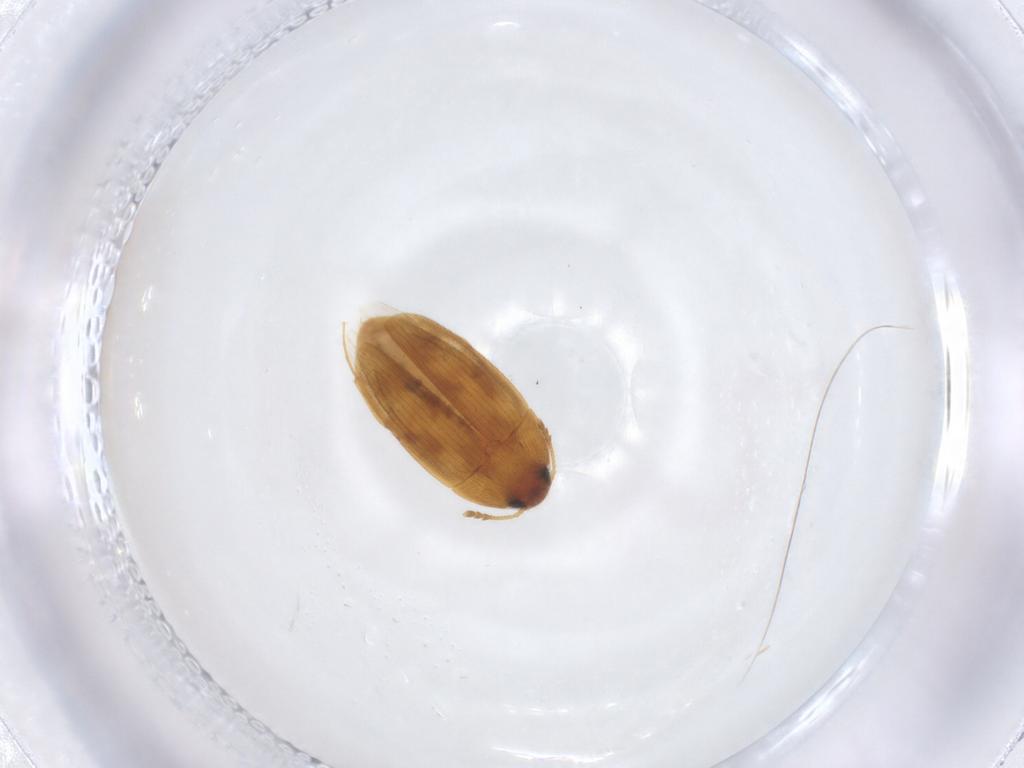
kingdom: Animalia
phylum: Arthropoda
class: Insecta
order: Coleoptera
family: Mycetophagidae
